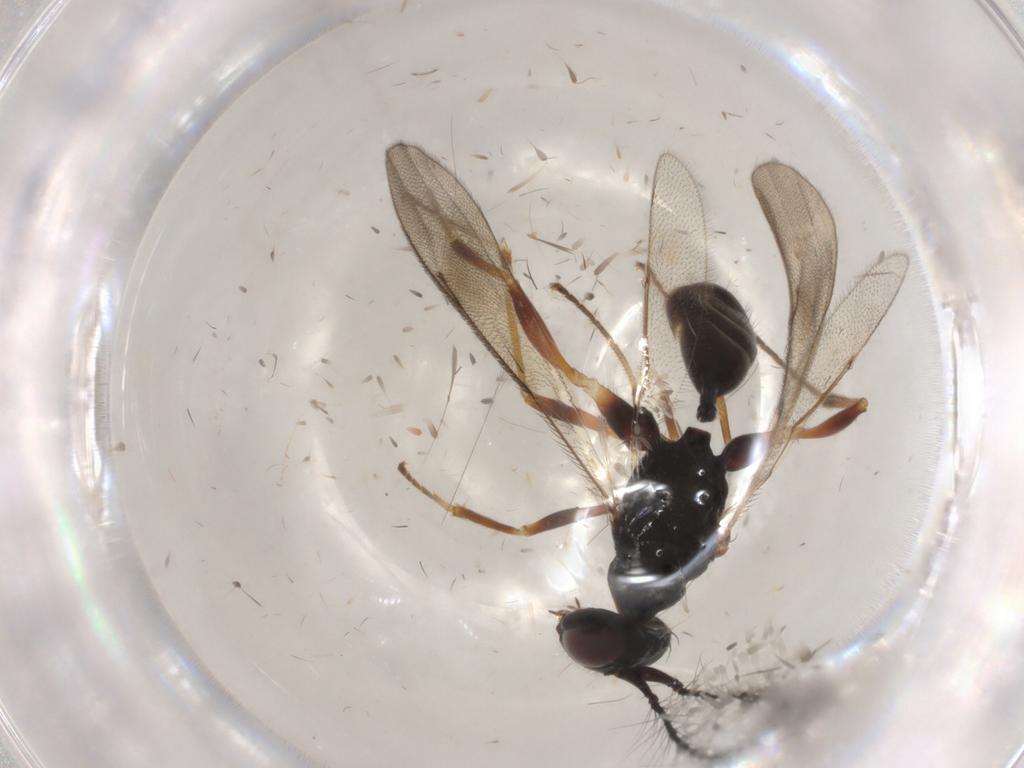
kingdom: Animalia
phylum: Arthropoda
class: Insecta
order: Hymenoptera
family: Diparidae
